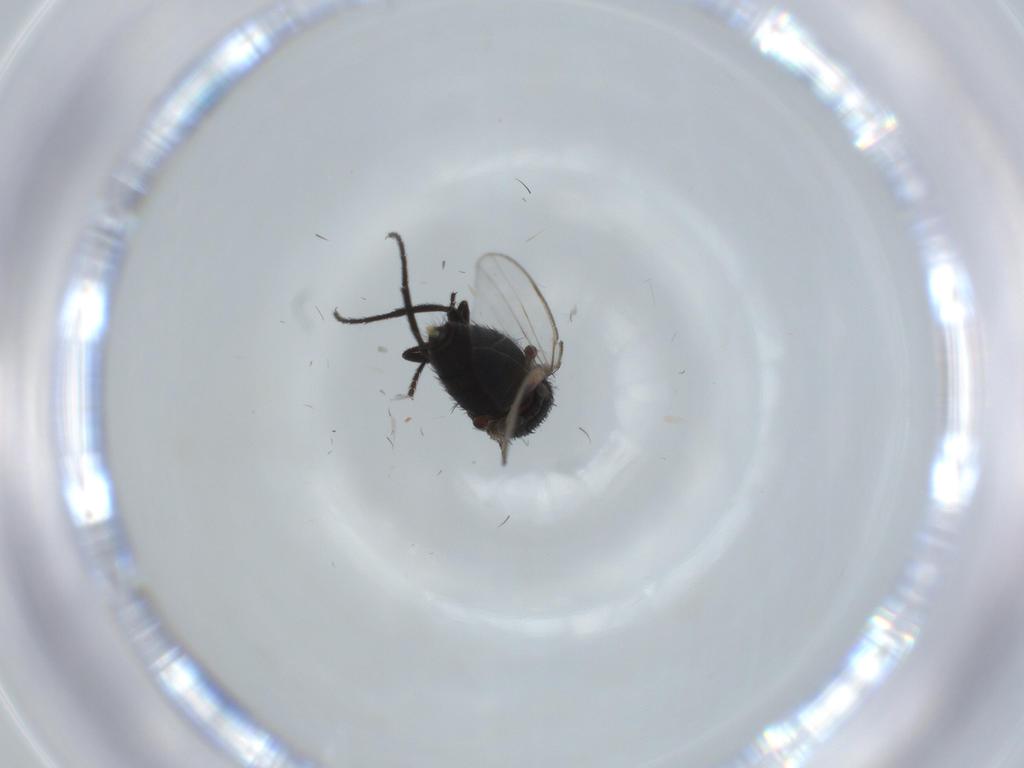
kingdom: Animalia
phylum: Arthropoda
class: Insecta
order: Diptera
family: Milichiidae
